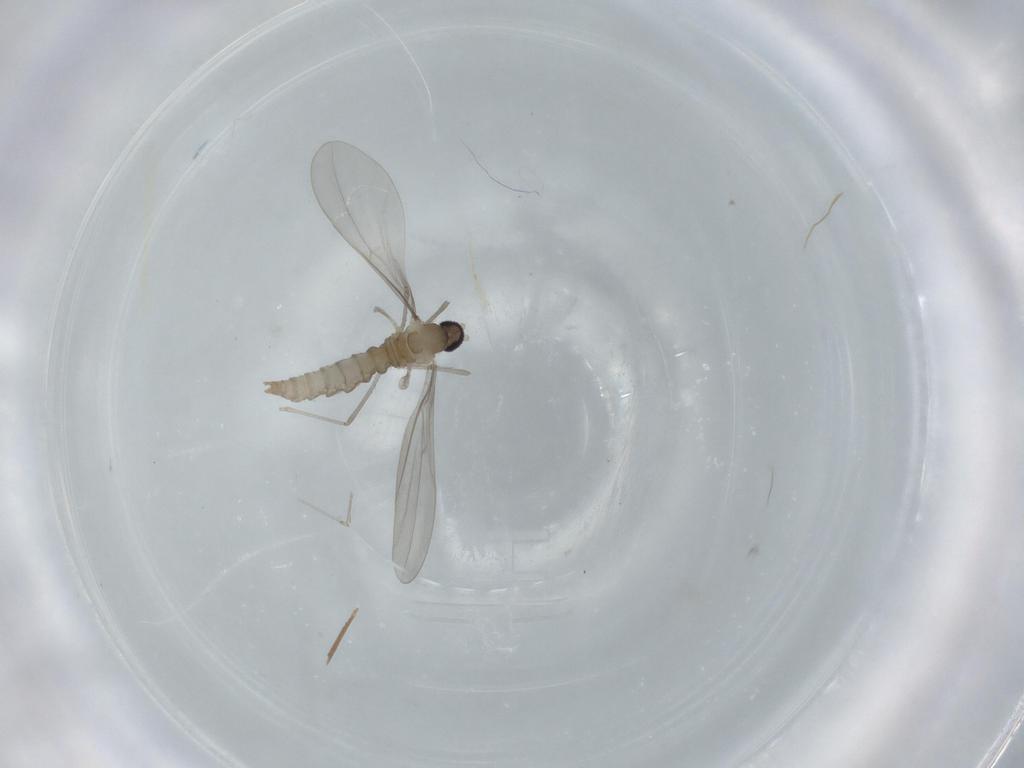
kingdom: Animalia
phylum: Arthropoda
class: Insecta
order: Diptera
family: Cecidomyiidae
